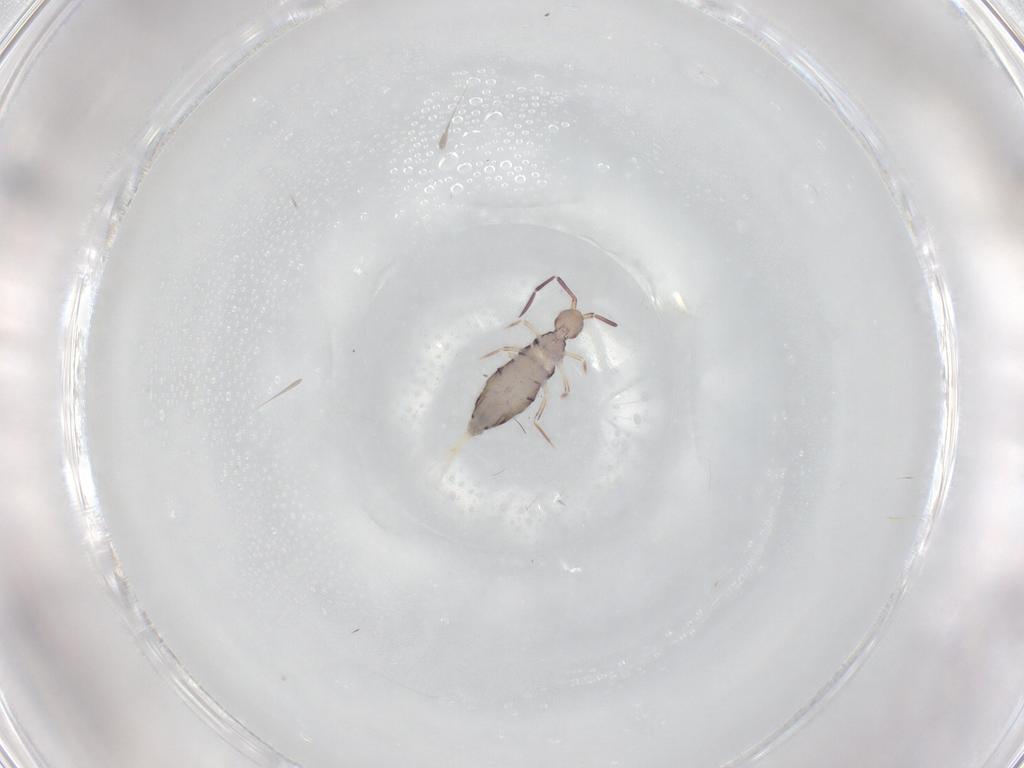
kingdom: Animalia
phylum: Arthropoda
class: Collembola
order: Entomobryomorpha
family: Entomobryidae
